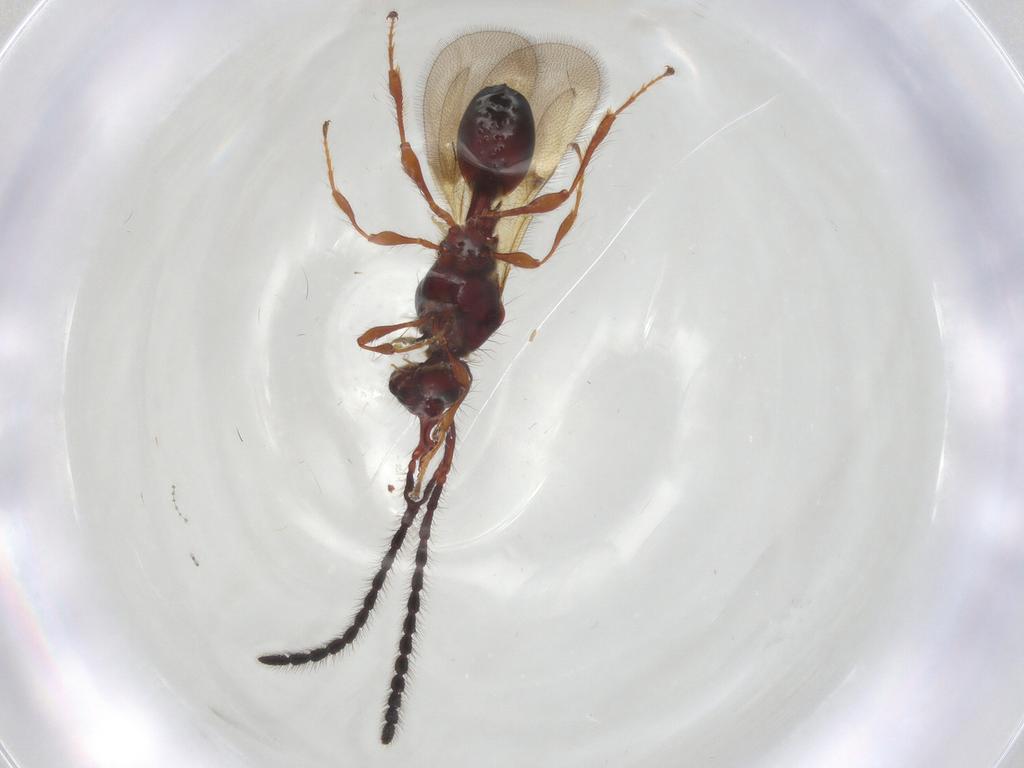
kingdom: Animalia
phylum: Arthropoda
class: Insecta
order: Hymenoptera
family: Diapriidae
